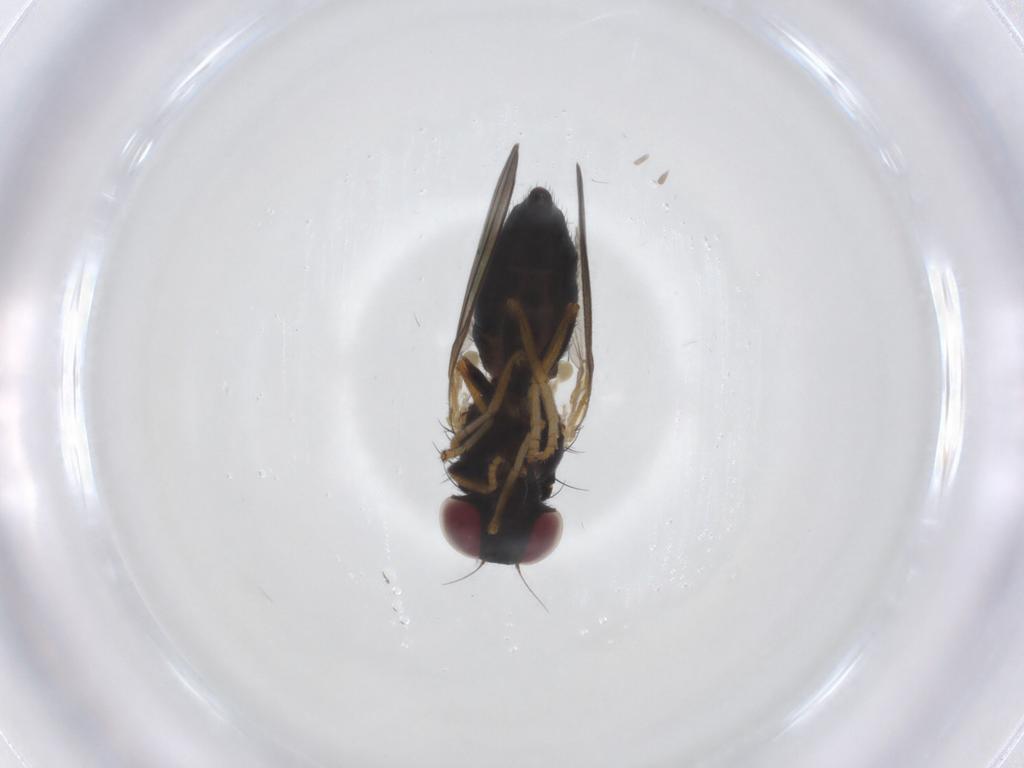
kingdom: Animalia
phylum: Arthropoda
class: Insecta
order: Diptera
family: Chamaemyiidae
